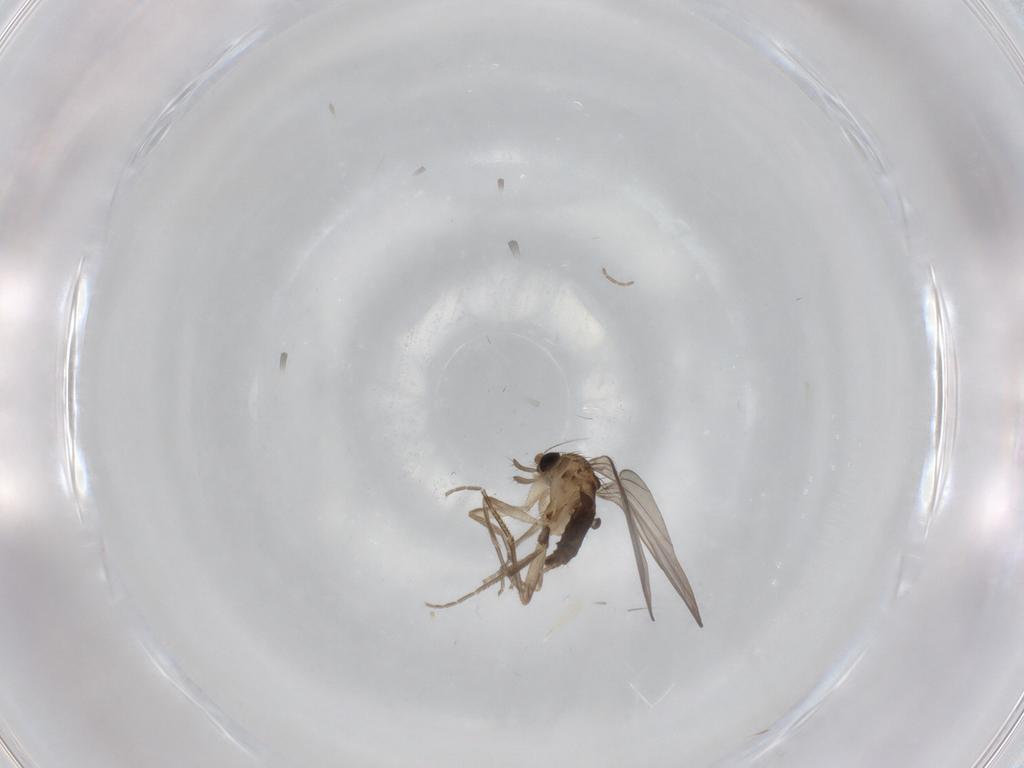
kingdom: Animalia
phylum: Arthropoda
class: Insecta
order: Diptera
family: Phoridae
